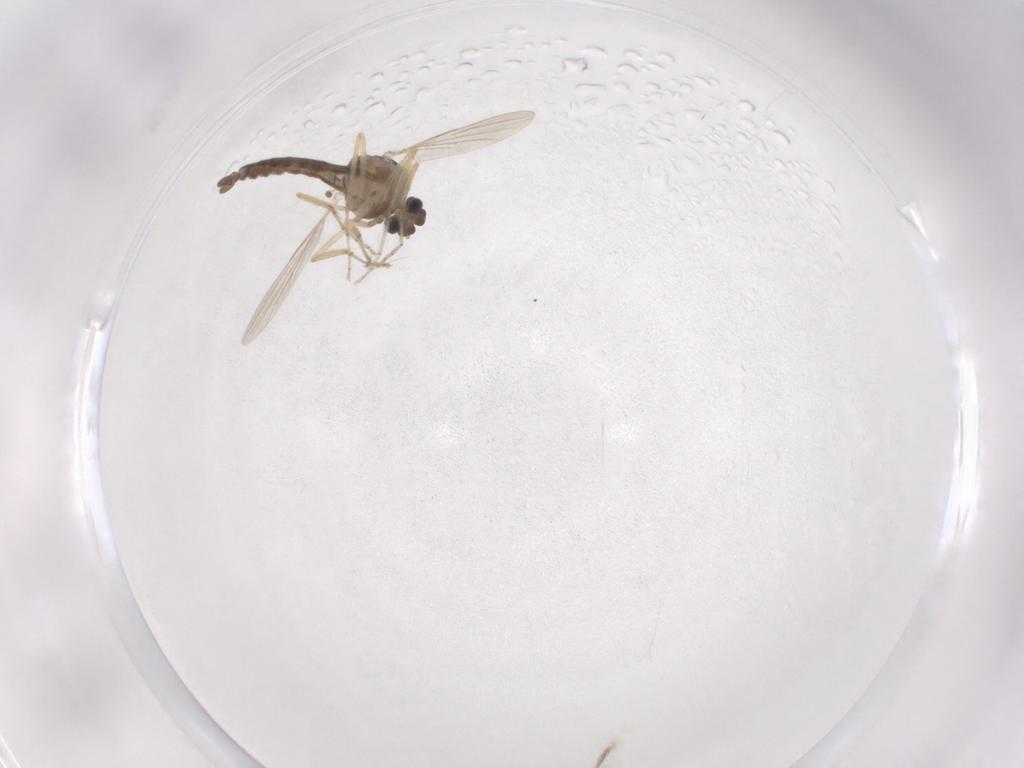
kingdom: Animalia
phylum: Arthropoda
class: Insecta
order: Diptera
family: Ceratopogonidae
